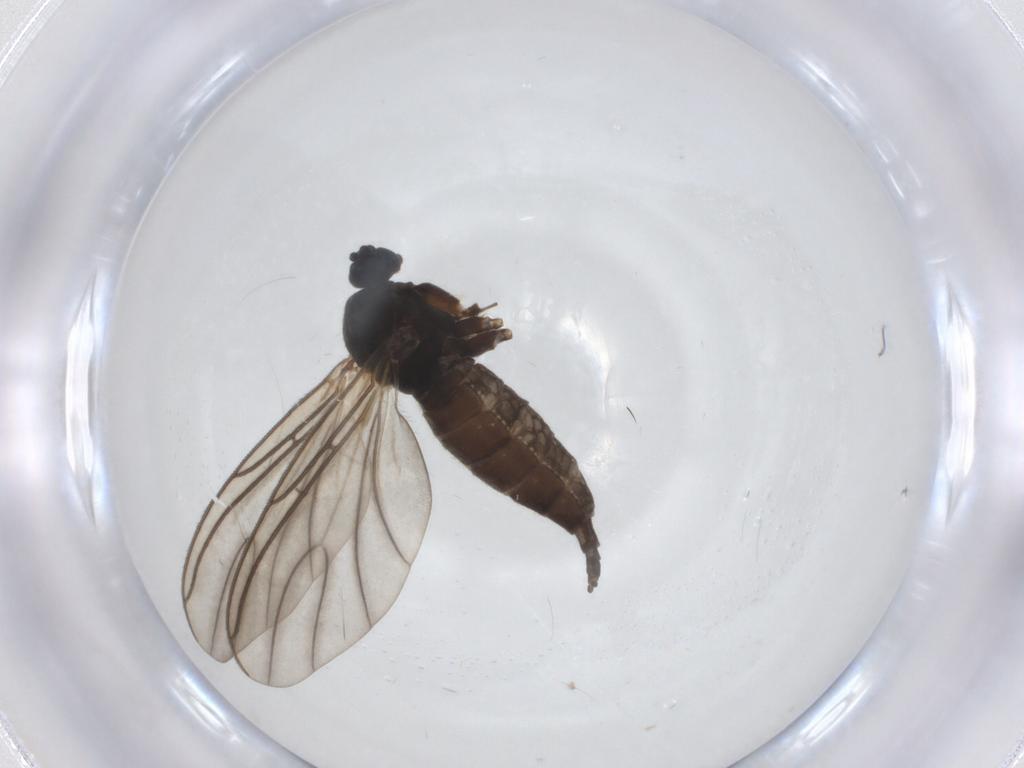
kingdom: Animalia
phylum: Arthropoda
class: Insecta
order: Diptera
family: Sciaridae
